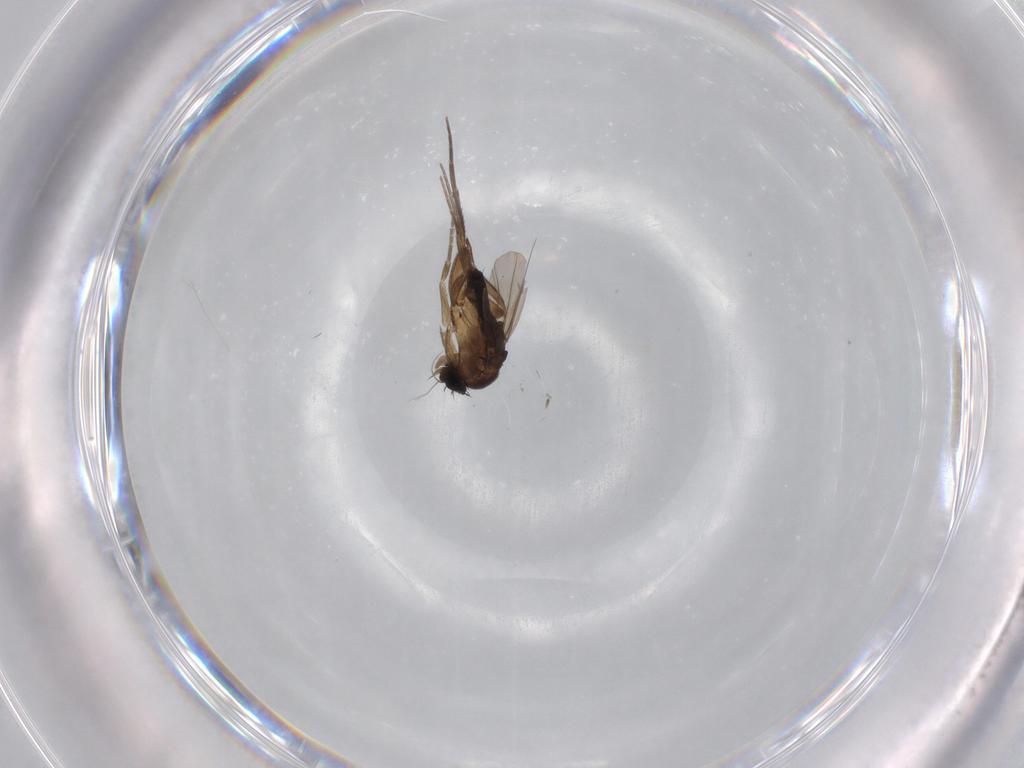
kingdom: Animalia
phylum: Arthropoda
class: Insecta
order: Diptera
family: Phoridae
